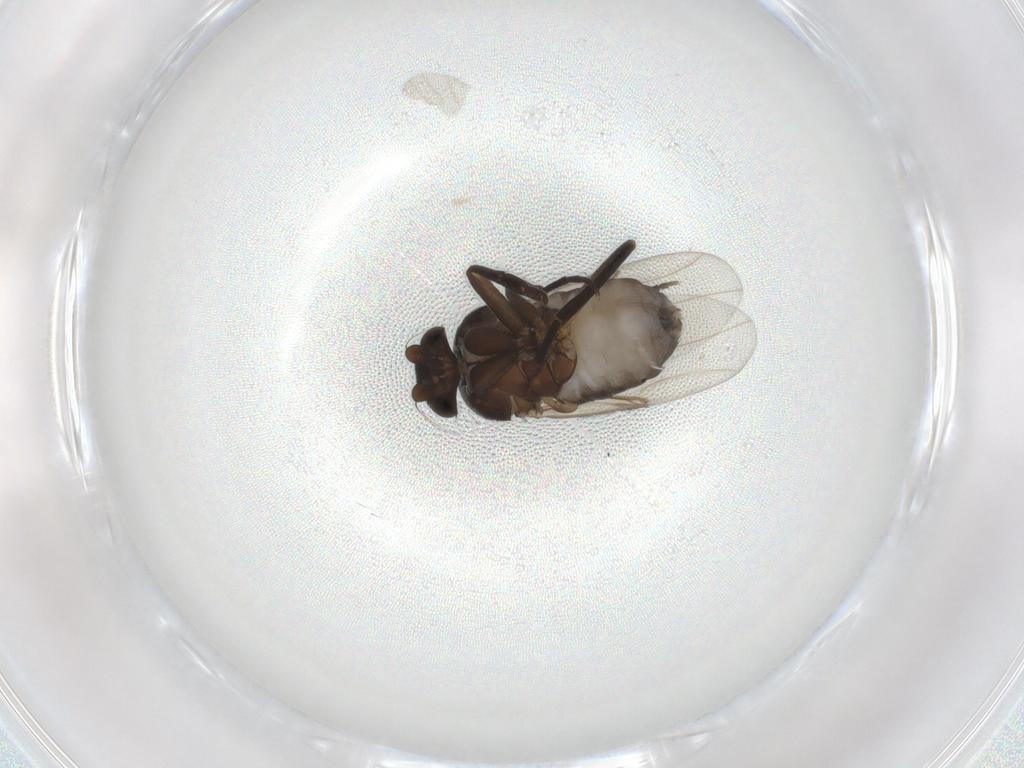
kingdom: Animalia
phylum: Arthropoda
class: Insecta
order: Diptera
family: Phoridae
